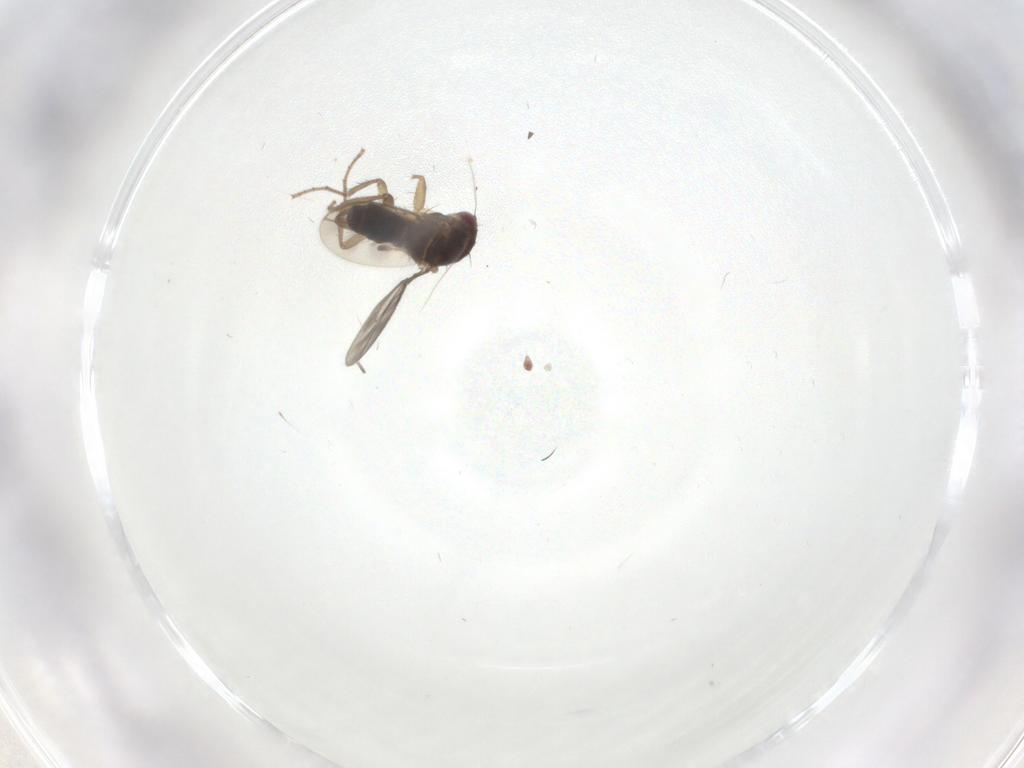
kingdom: Animalia
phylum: Arthropoda
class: Insecta
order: Diptera
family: Sphaeroceridae
